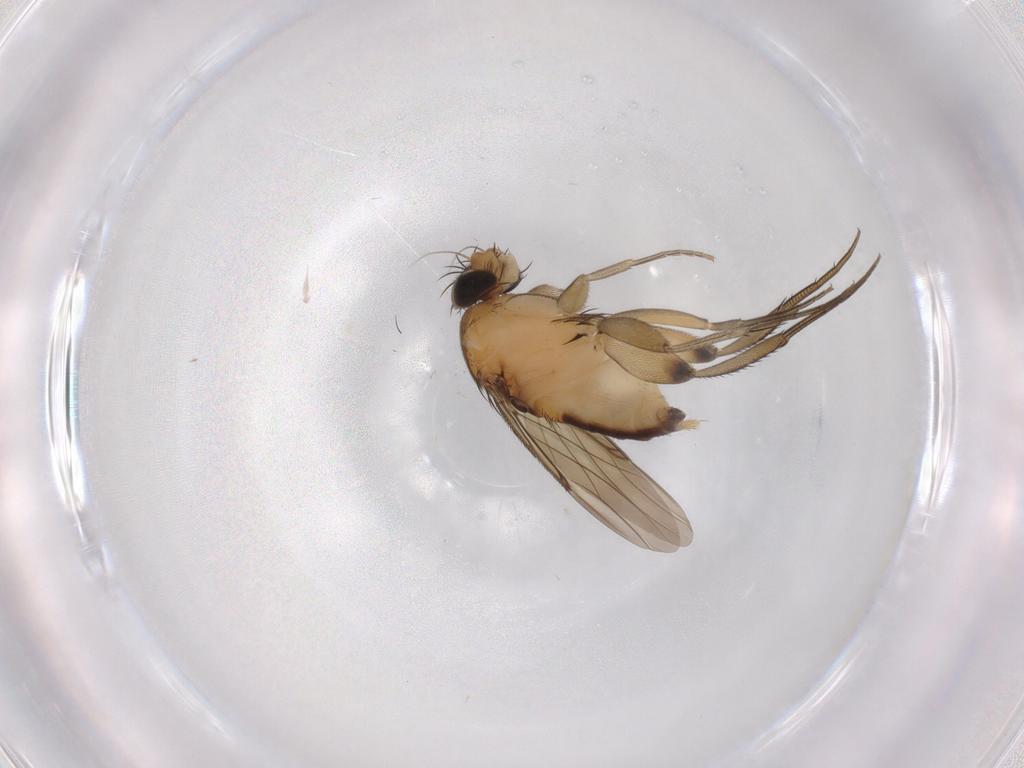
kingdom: Animalia
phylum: Arthropoda
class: Insecta
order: Diptera
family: Phoridae
